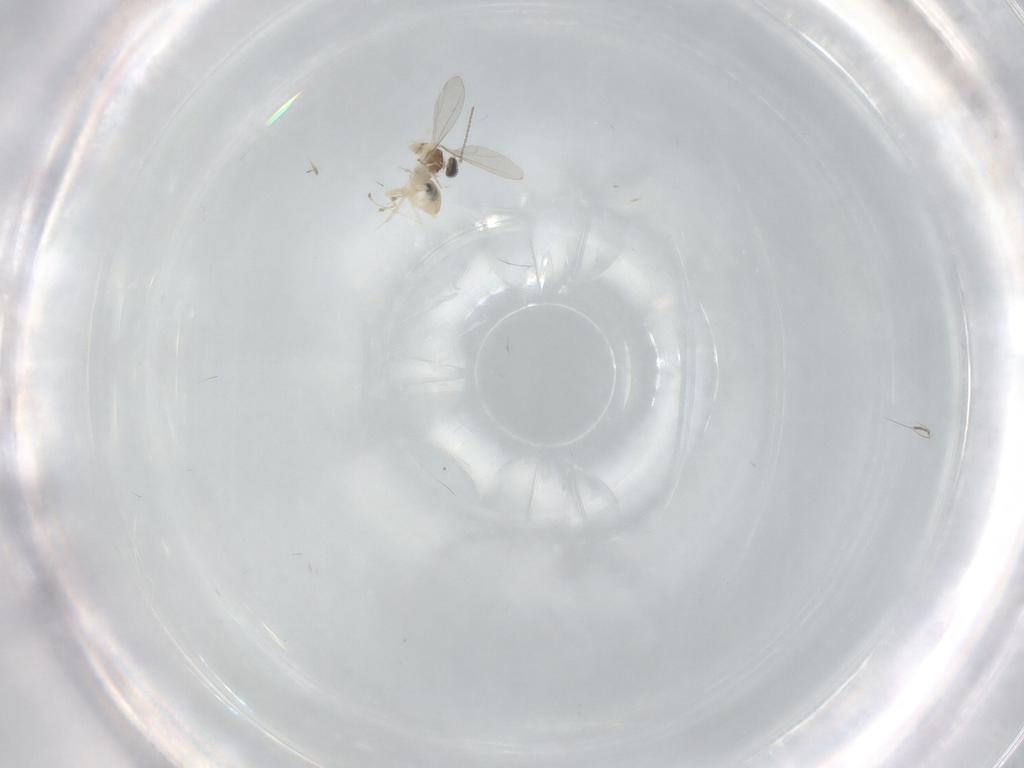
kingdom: Animalia
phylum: Arthropoda
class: Insecta
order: Diptera
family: Cecidomyiidae
